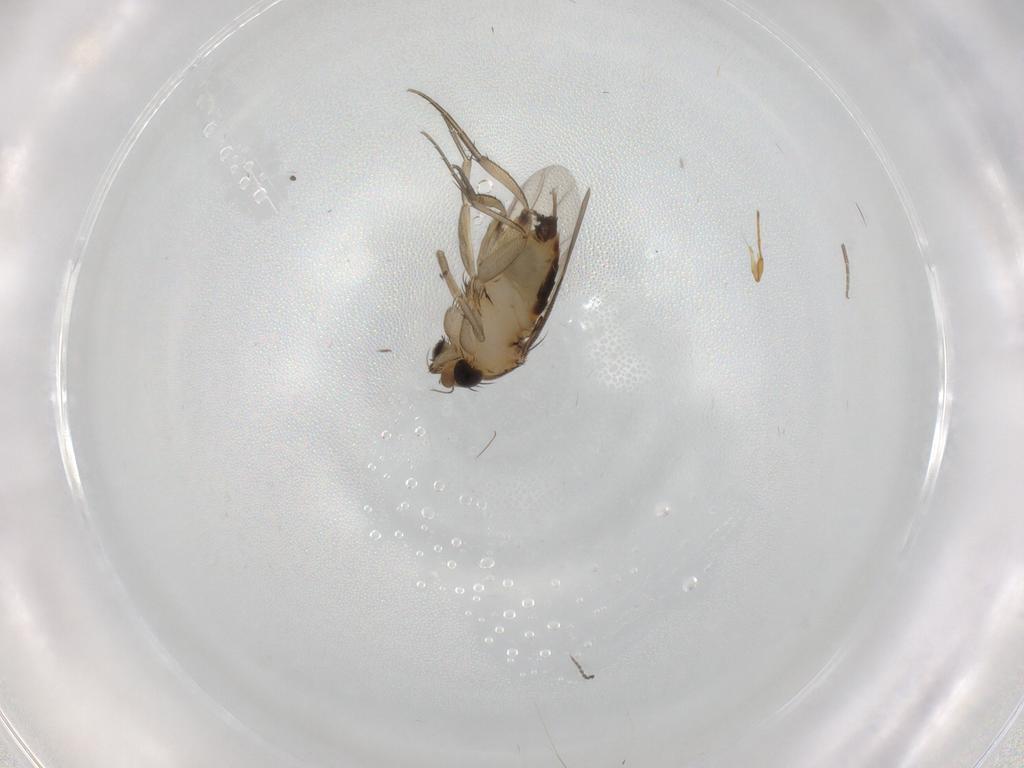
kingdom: Animalia
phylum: Arthropoda
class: Insecta
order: Diptera
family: Phoridae
